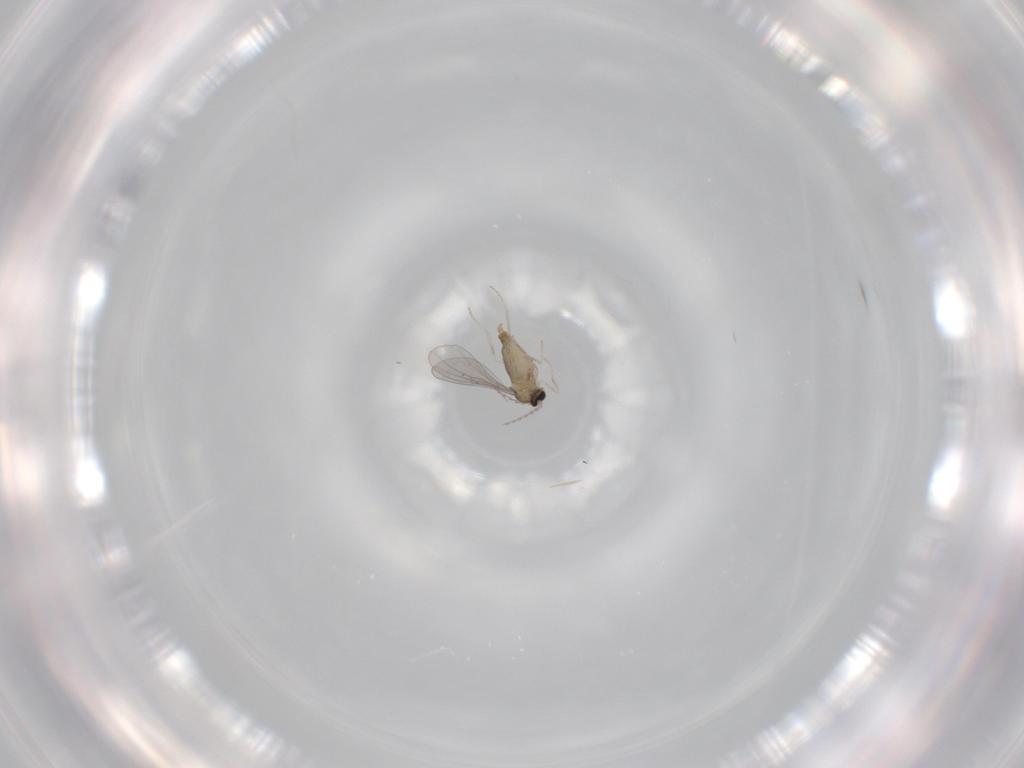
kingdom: Animalia
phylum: Arthropoda
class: Insecta
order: Diptera
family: Cecidomyiidae
